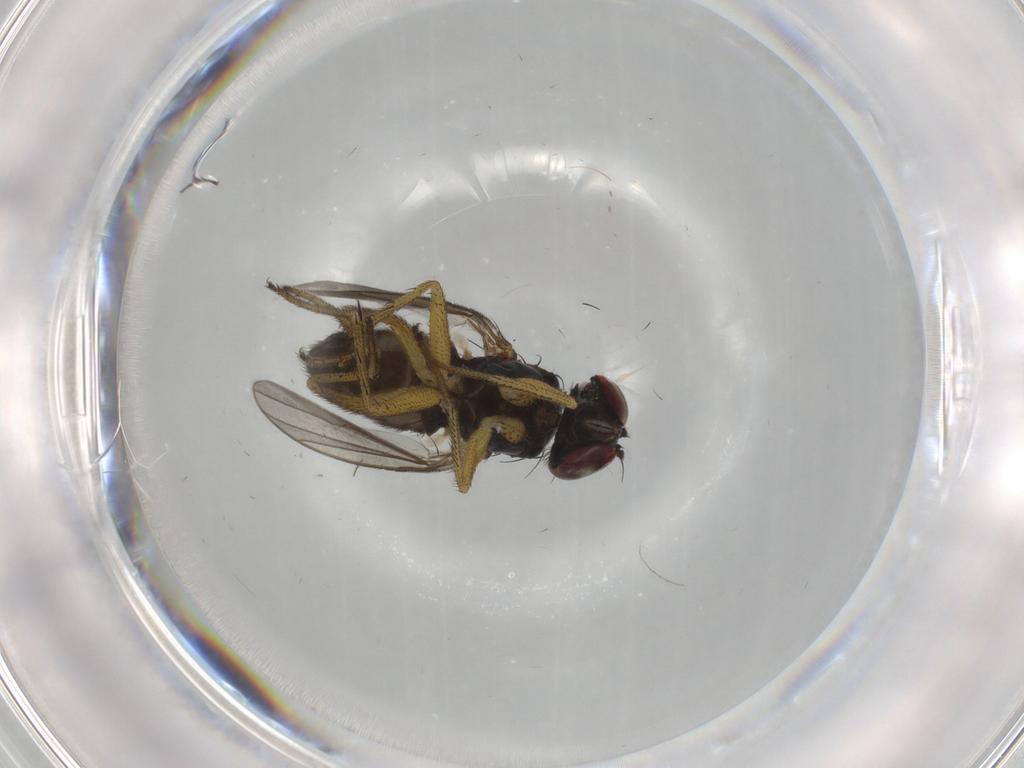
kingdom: Animalia
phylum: Arthropoda
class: Insecta
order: Diptera
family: Dolichopodidae
